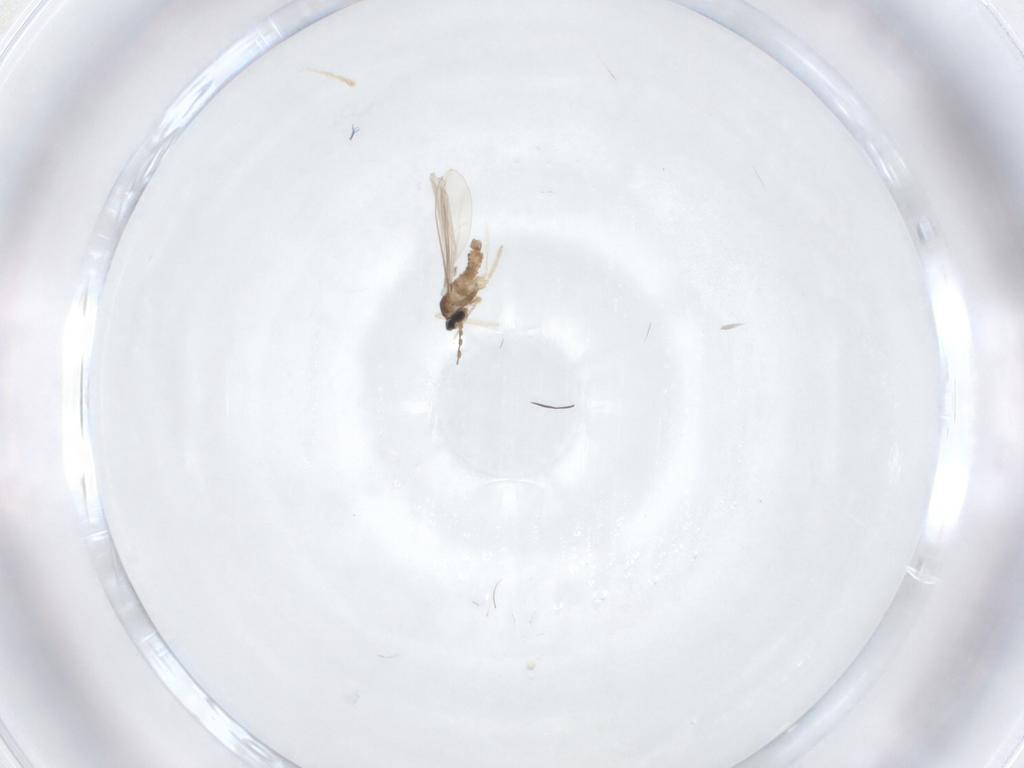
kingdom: Animalia
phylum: Arthropoda
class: Insecta
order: Diptera
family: Cecidomyiidae
